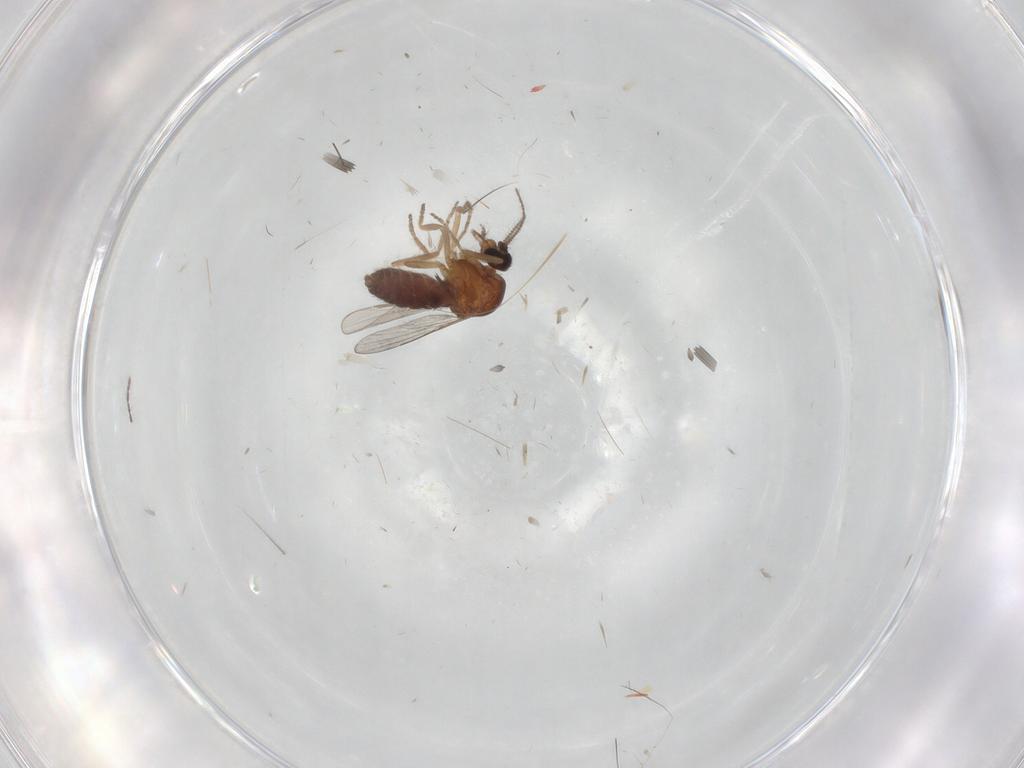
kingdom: Animalia
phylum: Arthropoda
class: Insecta
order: Diptera
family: Ceratopogonidae
